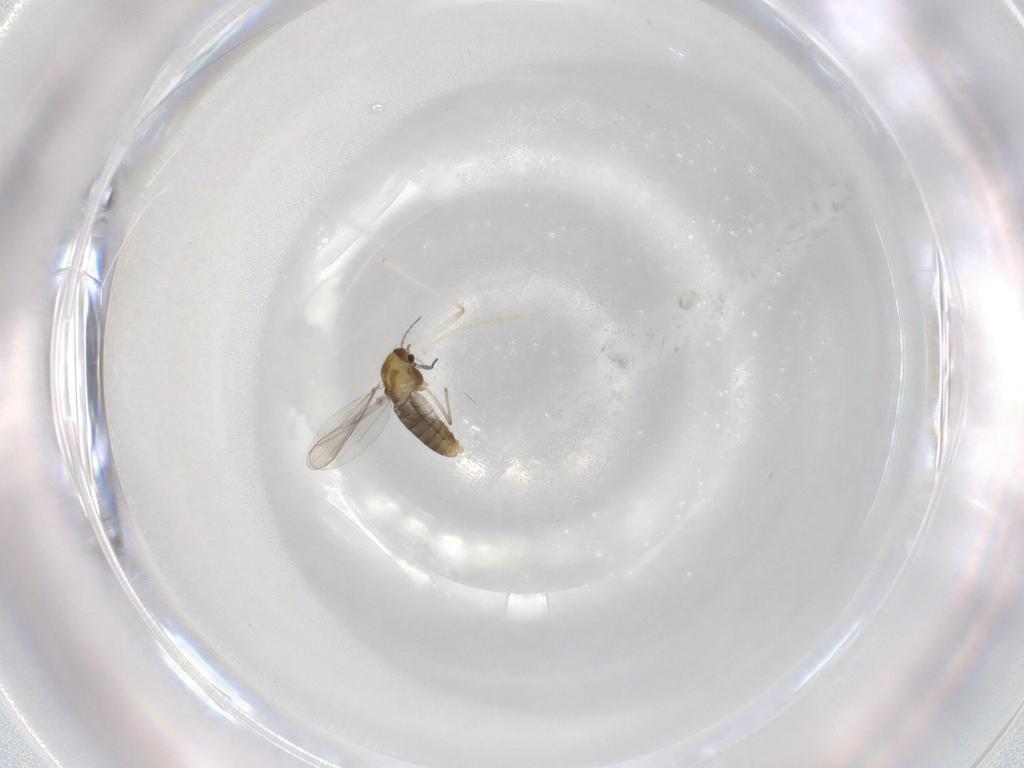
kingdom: Animalia
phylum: Arthropoda
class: Insecta
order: Diptera
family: Chironomidae
